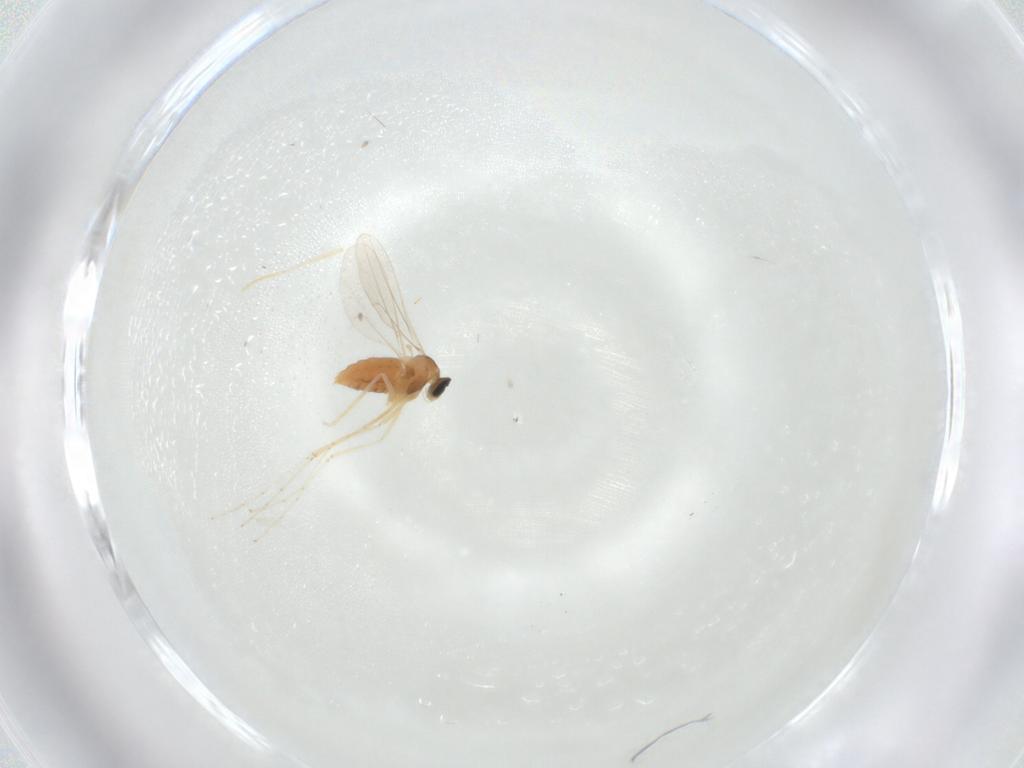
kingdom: Animalia
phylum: Arthropoda
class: Insecta
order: Diptera
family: Cecidomyiidae
